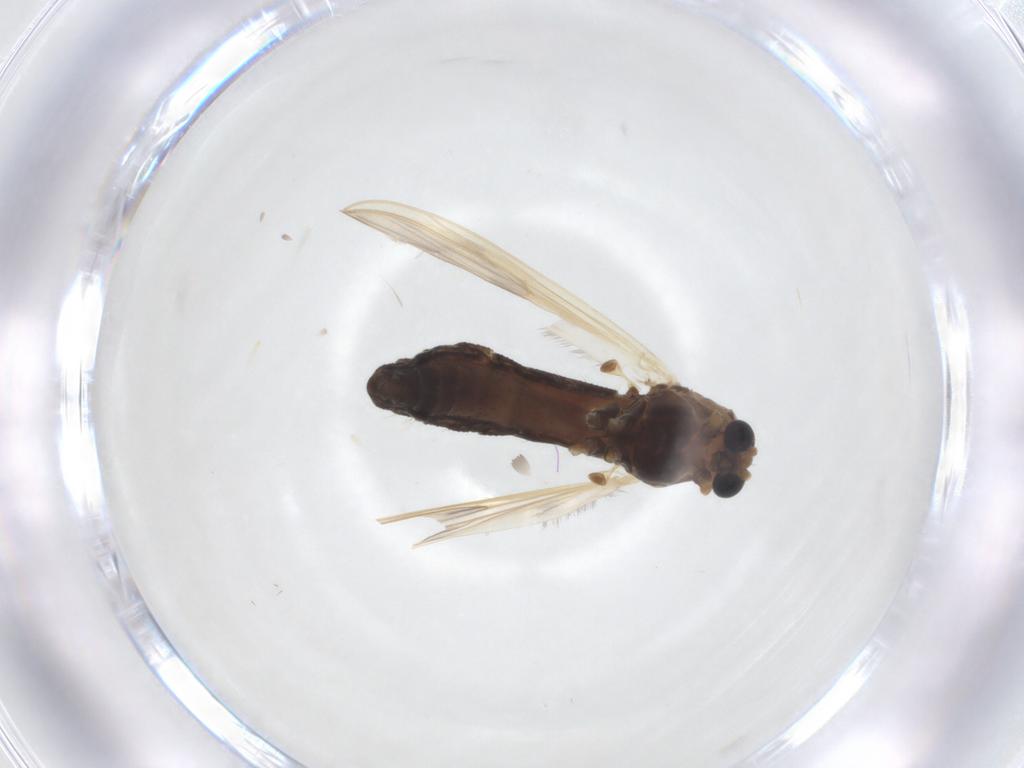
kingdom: Animalia
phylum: Arthropoda
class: Insecta
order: Diptera
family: Chironomidae
